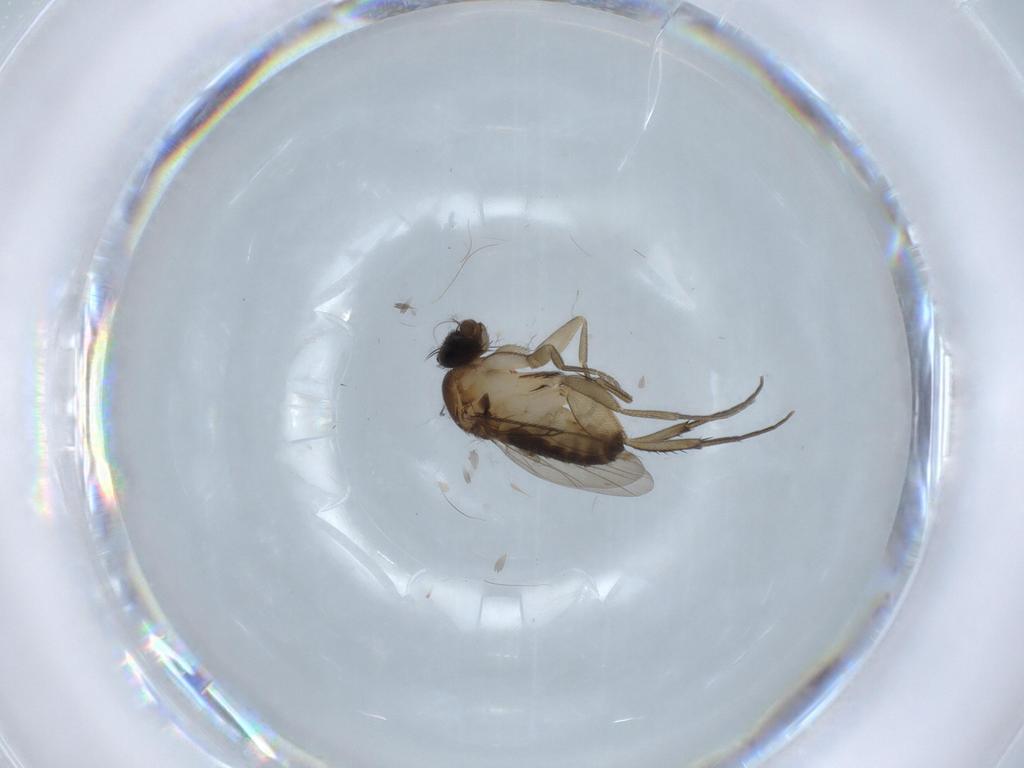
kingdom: Animalia
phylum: Arthropoda
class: Insecta
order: Diptera
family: Phoridae
